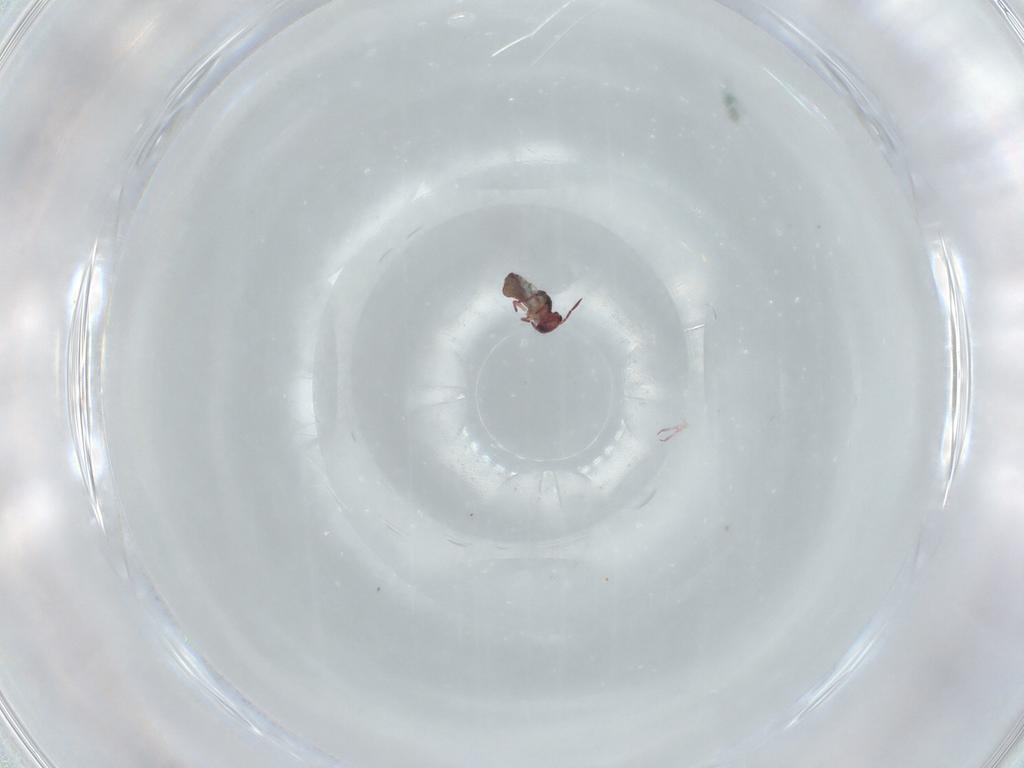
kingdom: Animalia
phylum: Arthropoda
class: Collembola
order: Symphypleona
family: Sminthurididae
